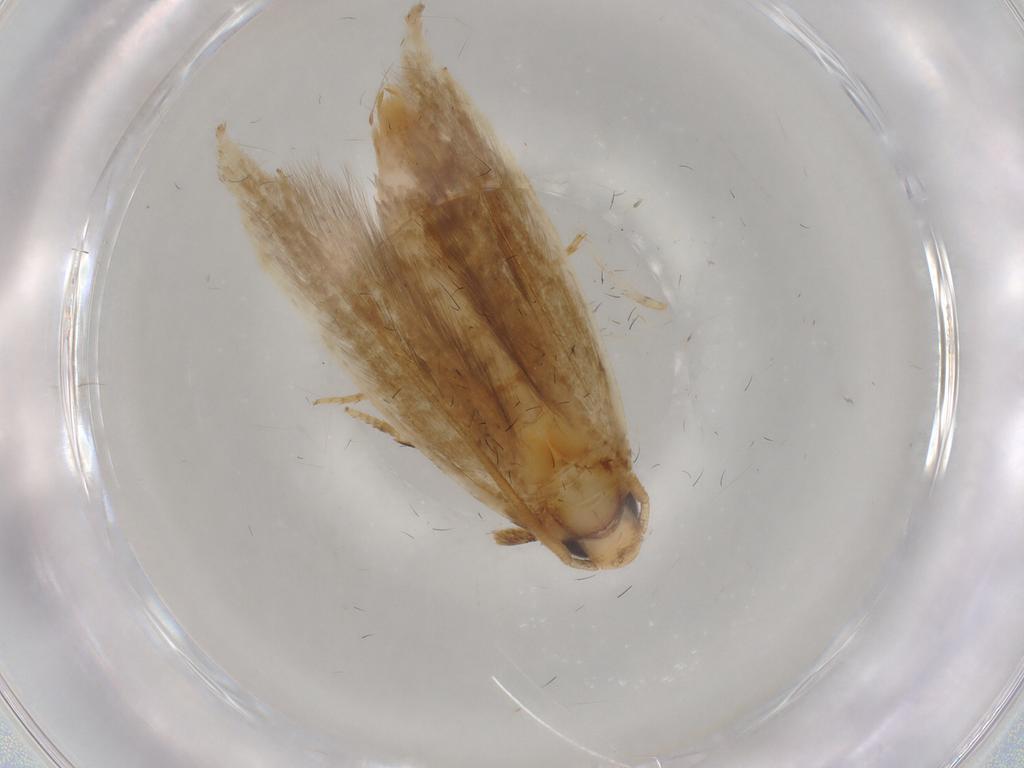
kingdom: Animalia
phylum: Arthropoda
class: Insecta
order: Lepidoptera
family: Tineidae
